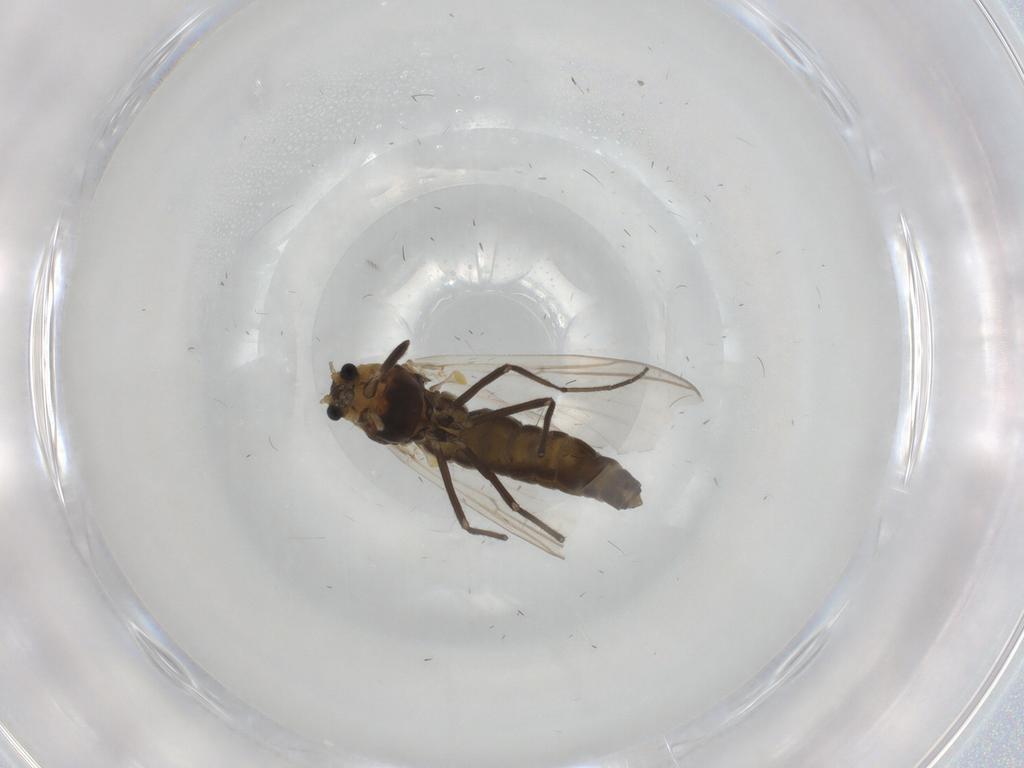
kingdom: Animalia
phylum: Arthropoda
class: Insecta
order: Diptera
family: Chironomidae
